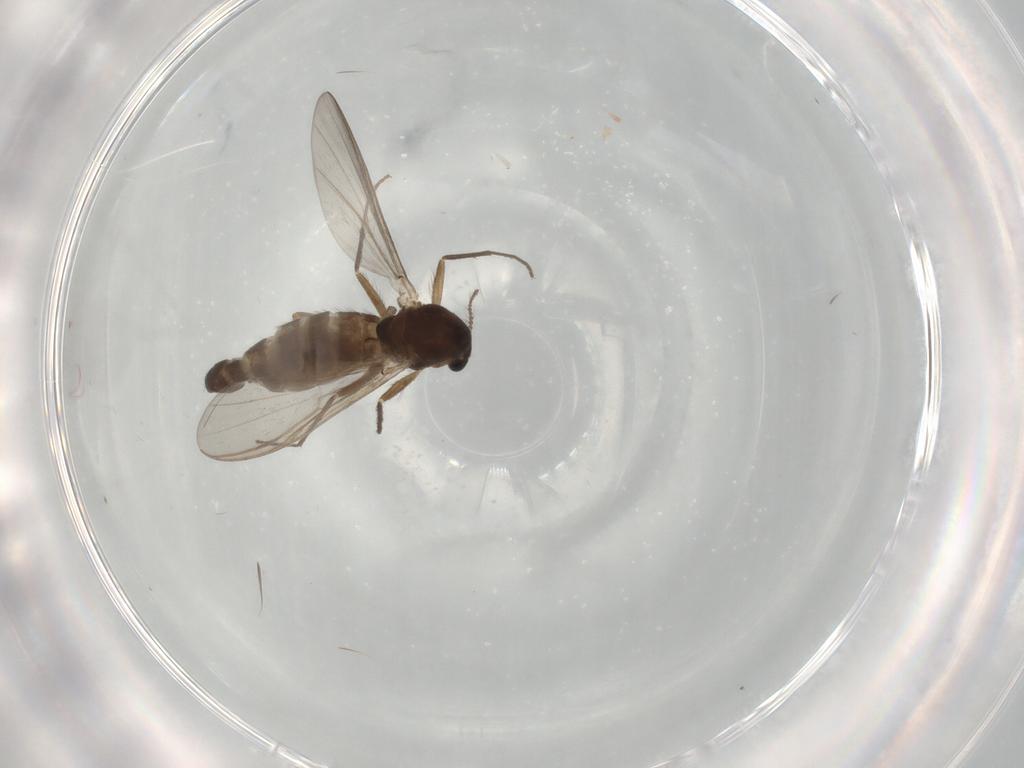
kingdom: Animalia
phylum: Arthropoda
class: Insecta
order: Diptera
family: Chironomidae
